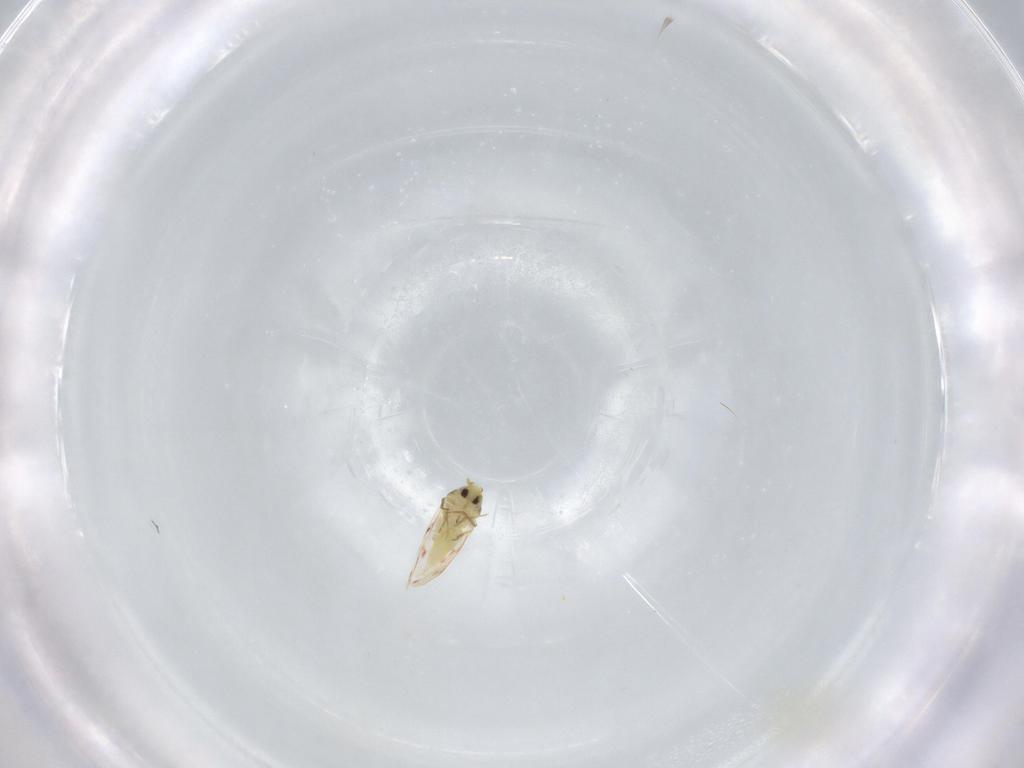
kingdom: Animalia
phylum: Arthropoda
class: Insecta
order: Hemiptera
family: Aleyrodidae
